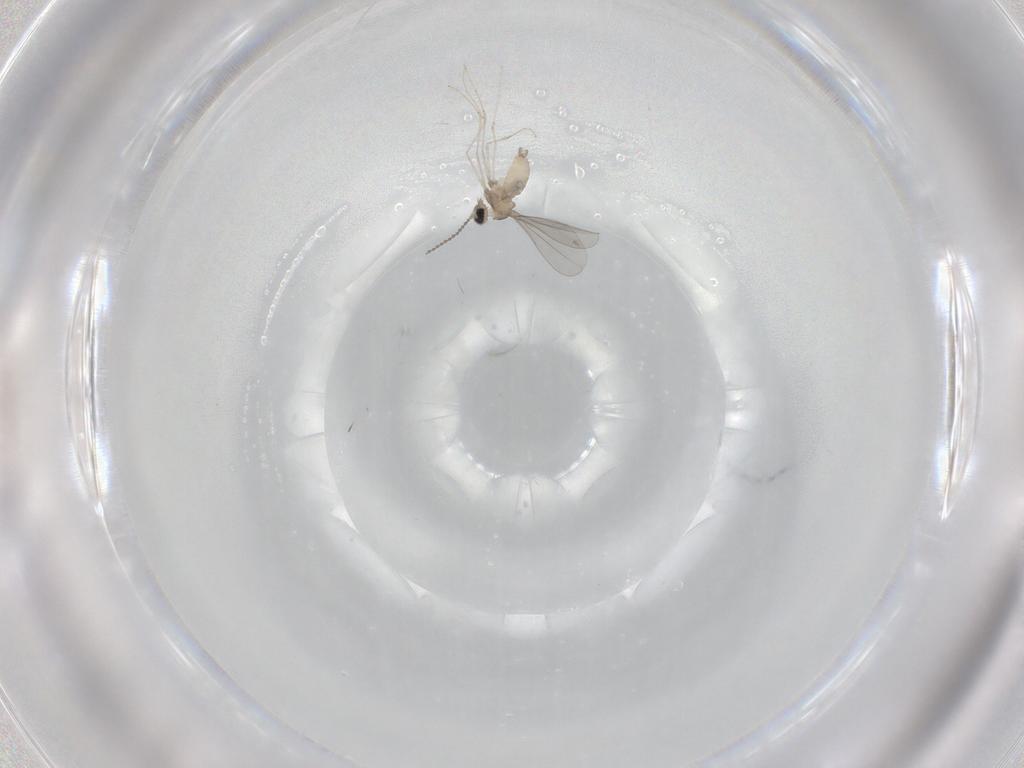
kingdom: Animalia
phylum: Arthropoda
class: Insecta
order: Diptera
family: Cecidomyiidae
